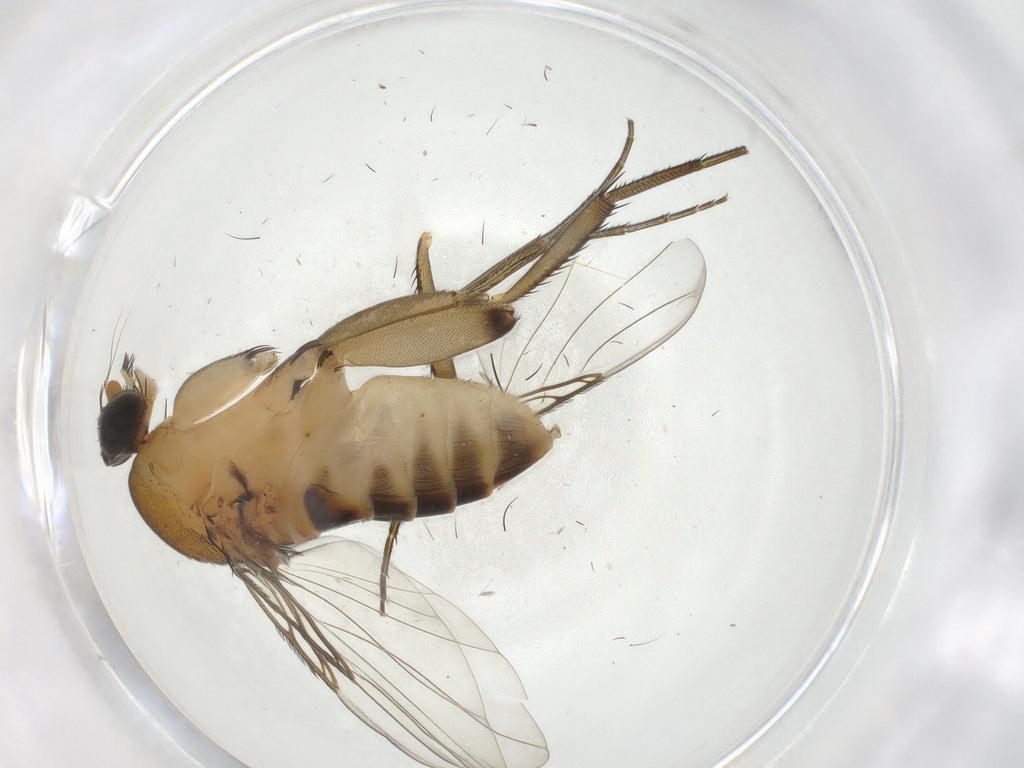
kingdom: Animalia
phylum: Arthropoda
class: Insecta
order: Diptera
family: Phoridae
